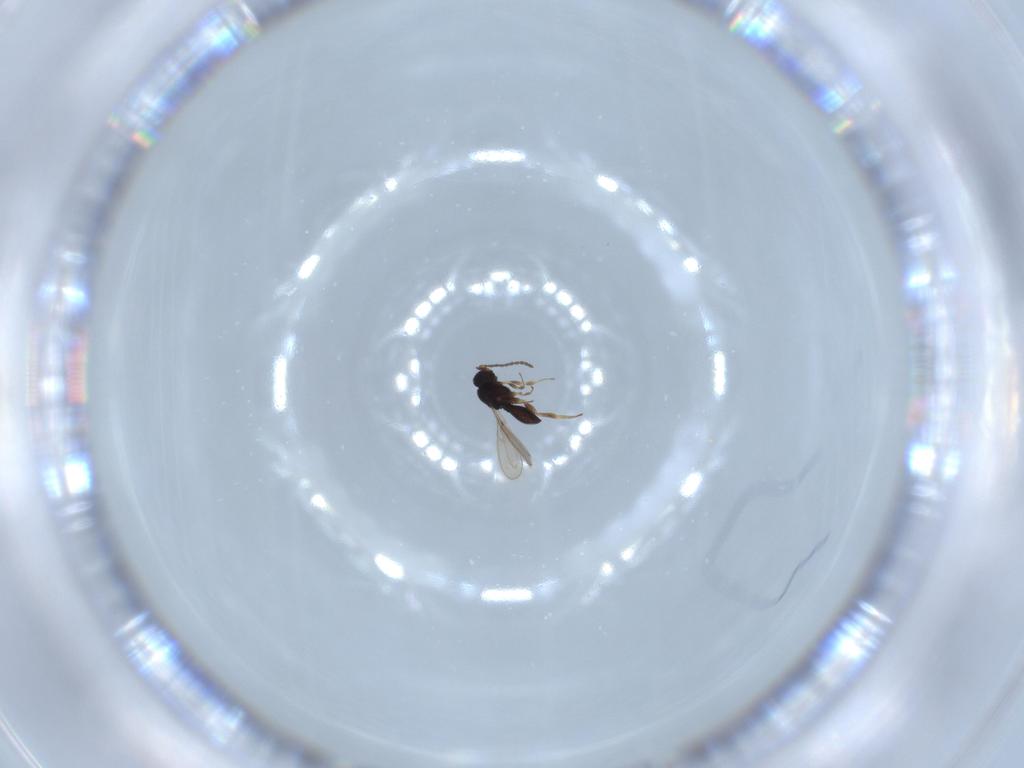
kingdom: Animalia
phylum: Arthropoda
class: Insecta
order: Hymenoptera
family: Scelionidae
